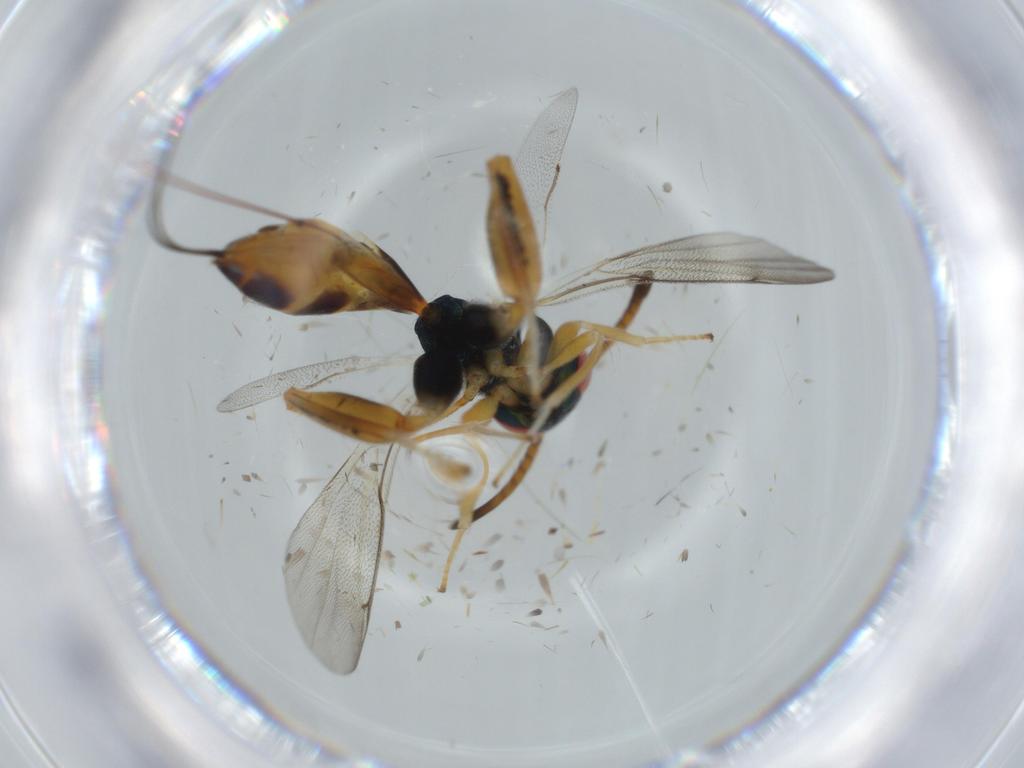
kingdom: Animalia
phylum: Arthropoda
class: Insecta
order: Hymenoptera
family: Torymidae
